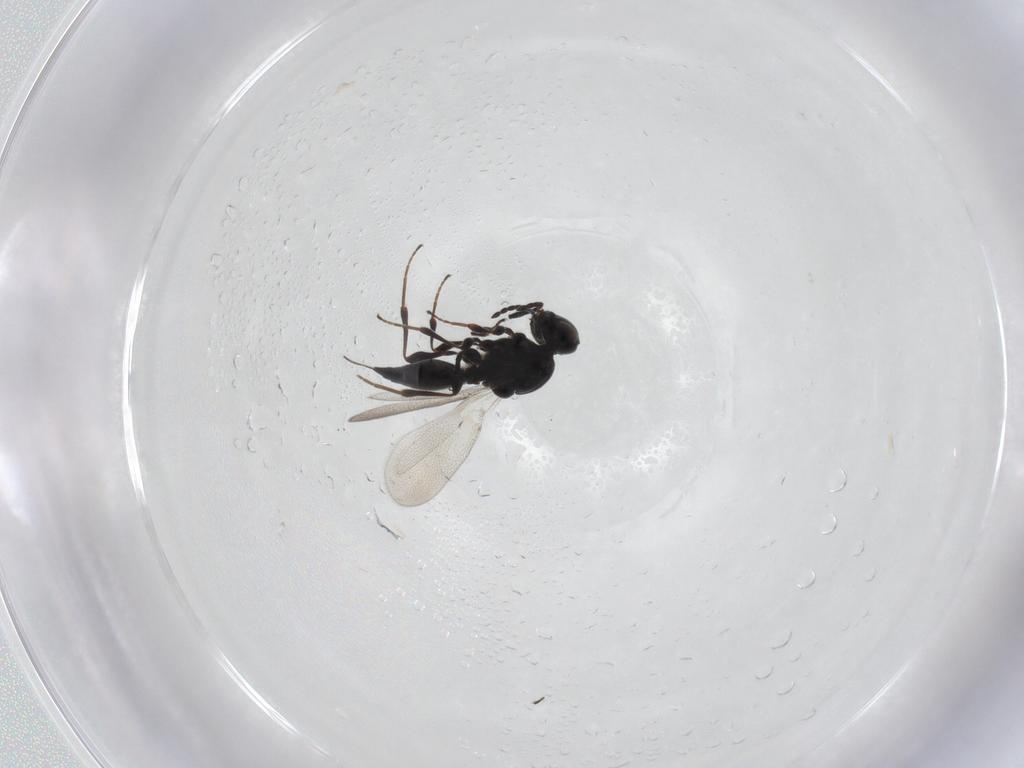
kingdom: Animalia
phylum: Arthropoda
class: Insecta
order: Hymenoptera
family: Platygastridae
